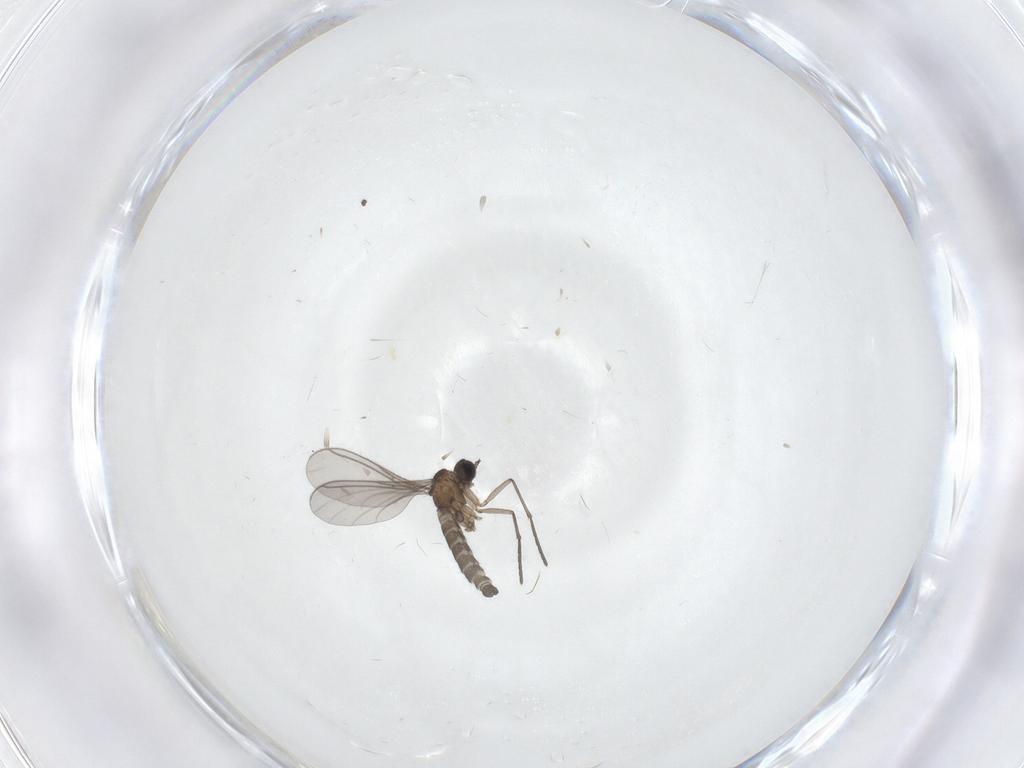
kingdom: Animalia
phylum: Arthropoda
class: Insecta
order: Diptera
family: Sciaridae
